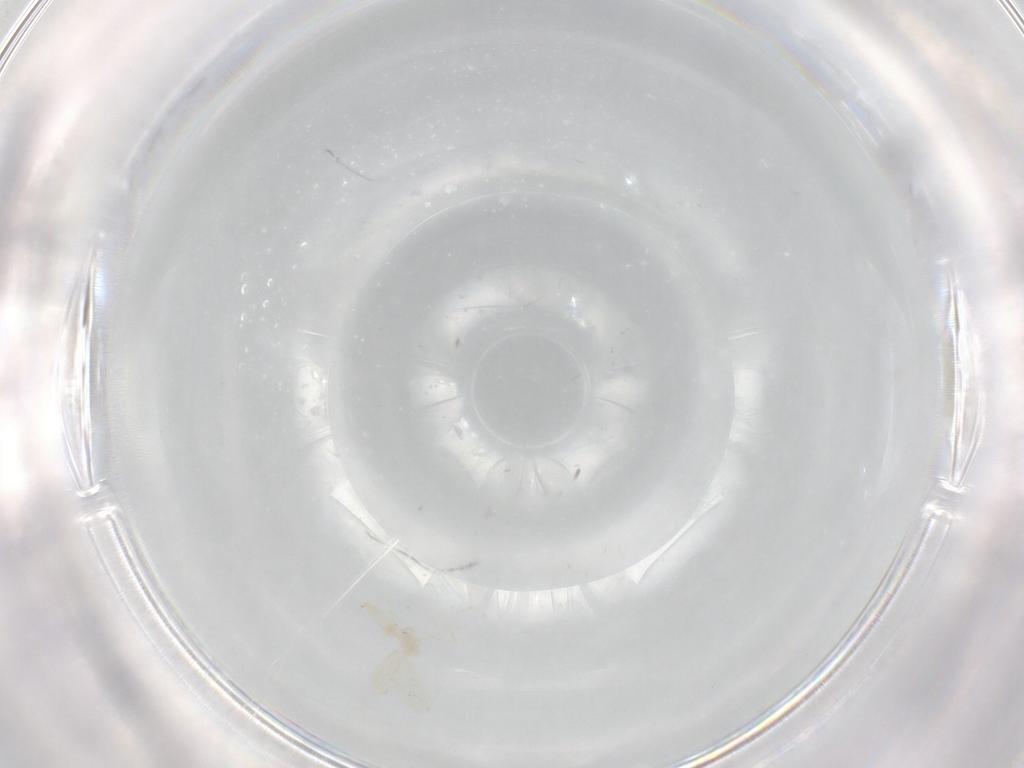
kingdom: Animalia
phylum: Arthropoda
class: Insecta
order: Diptera
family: Cecidomyiidae
